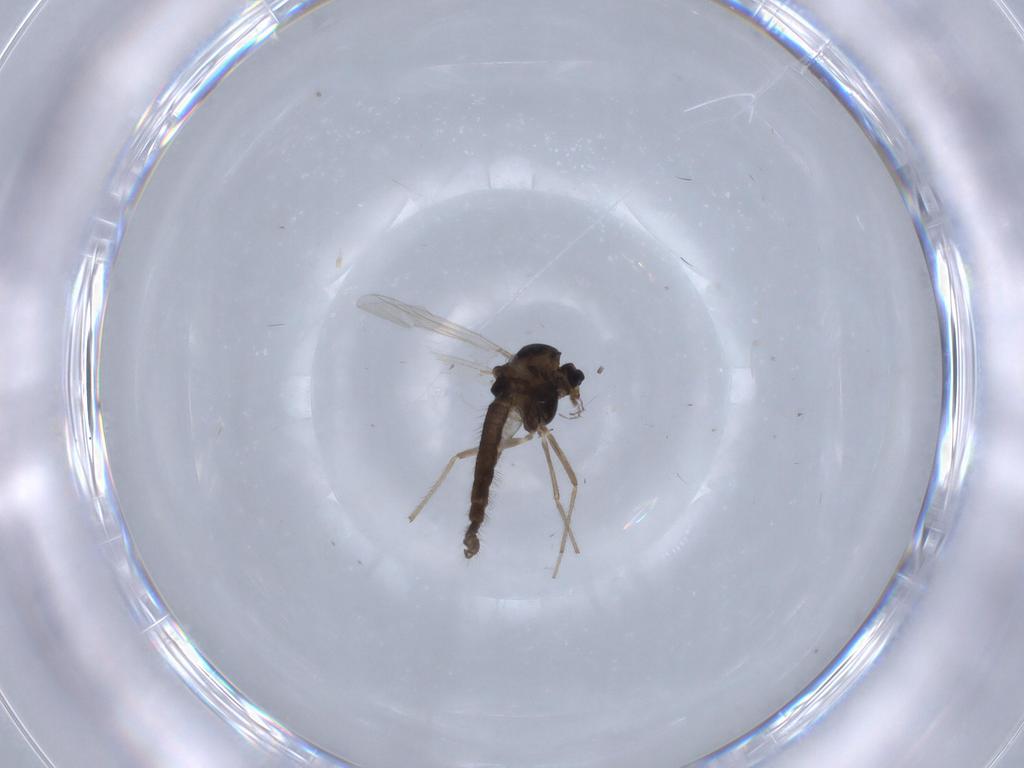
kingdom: Animalia
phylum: Arthropoda
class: Insecta
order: Diptera
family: Chironomidae
